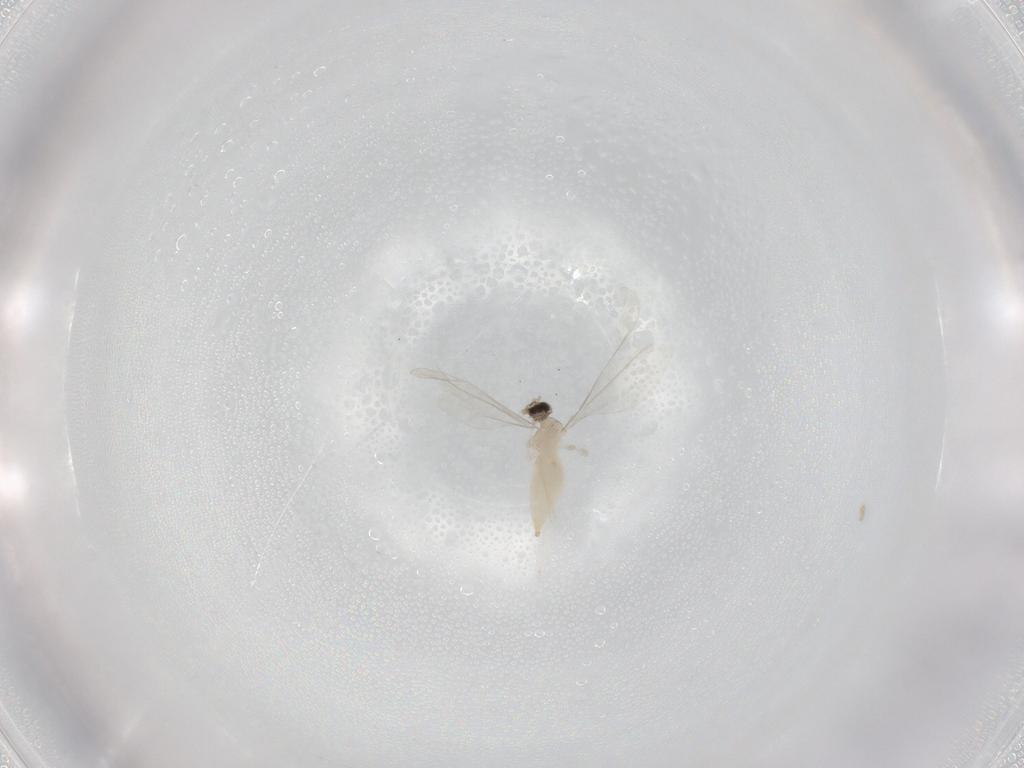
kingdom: Animalia
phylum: Arthropoda
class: Insecta
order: Diptera
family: Cecidomyiidae
